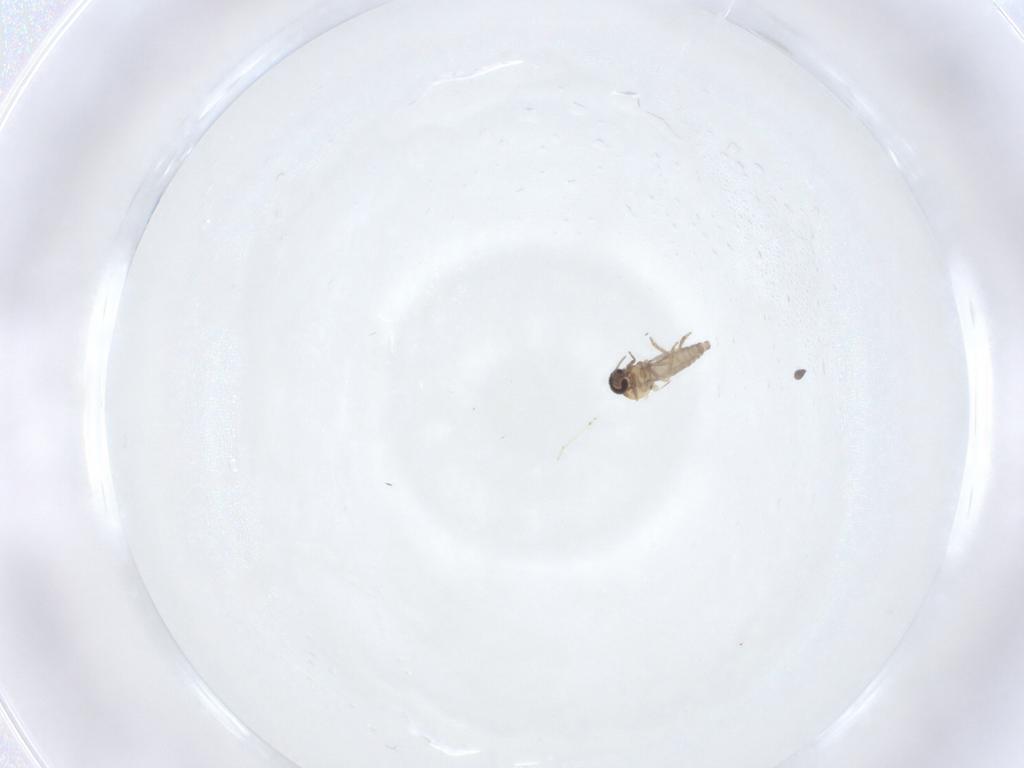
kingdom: Animalia
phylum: Arthropoda
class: Insecta
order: Diptera
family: Cecidomyiidae
